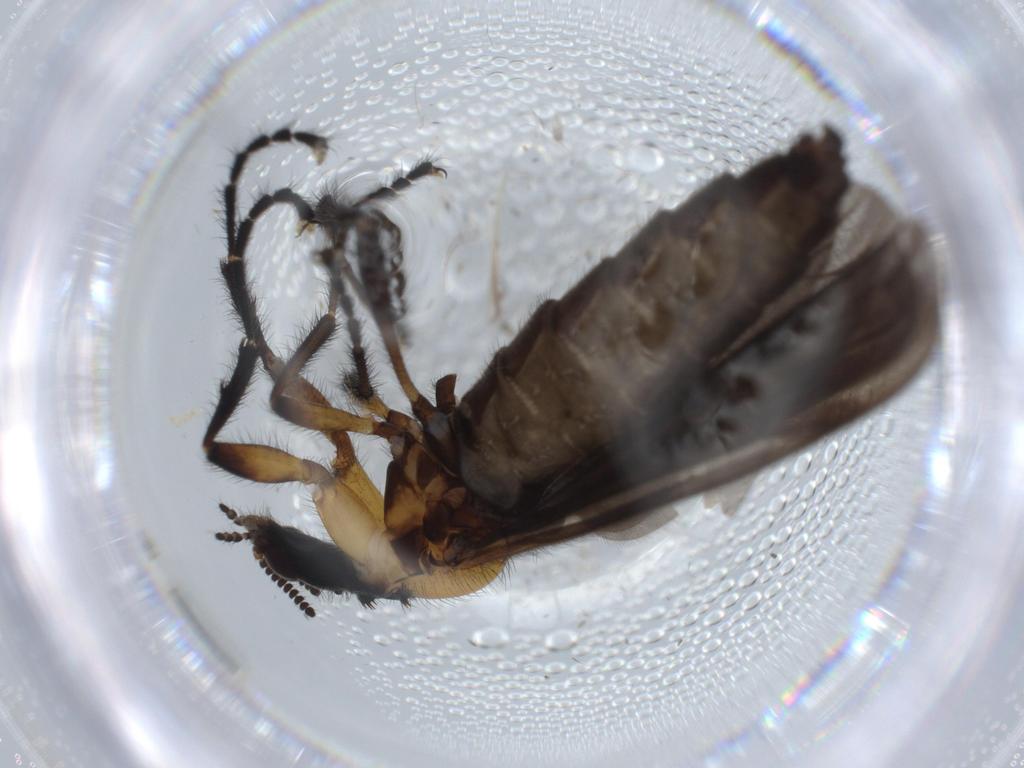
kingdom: Animalia
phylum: Arthropoda
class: Insecta
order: Diptera
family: Bibionidae
